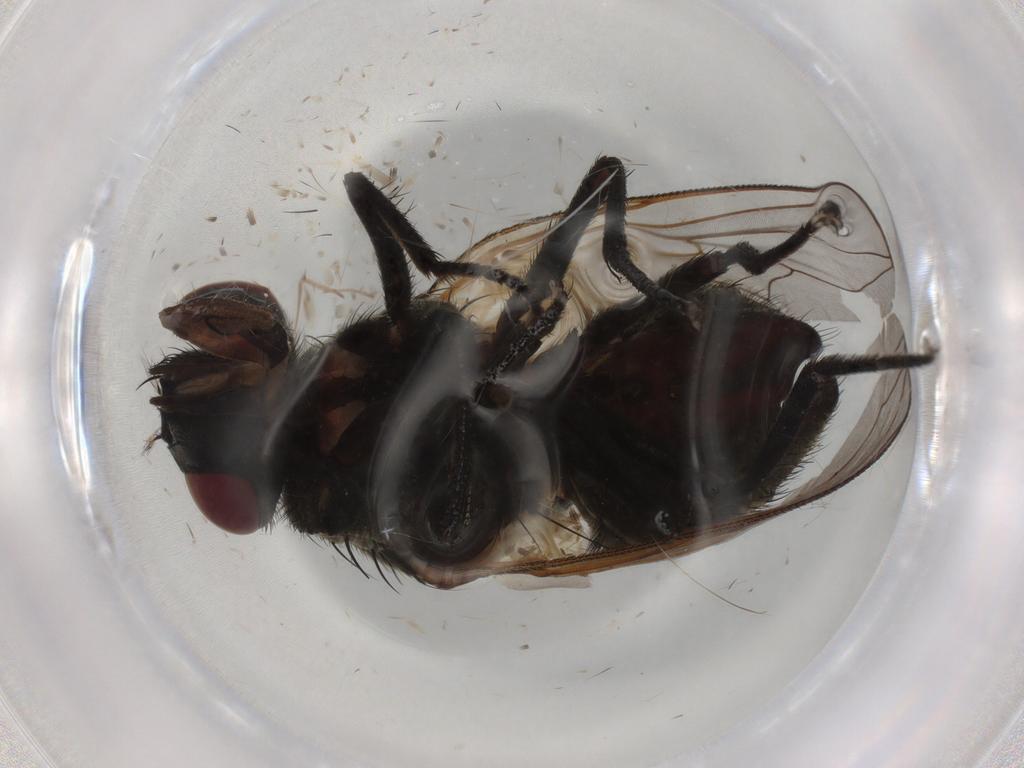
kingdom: Animalia
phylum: Arthropoda
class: Insecta
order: Diptera
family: Muscidae
